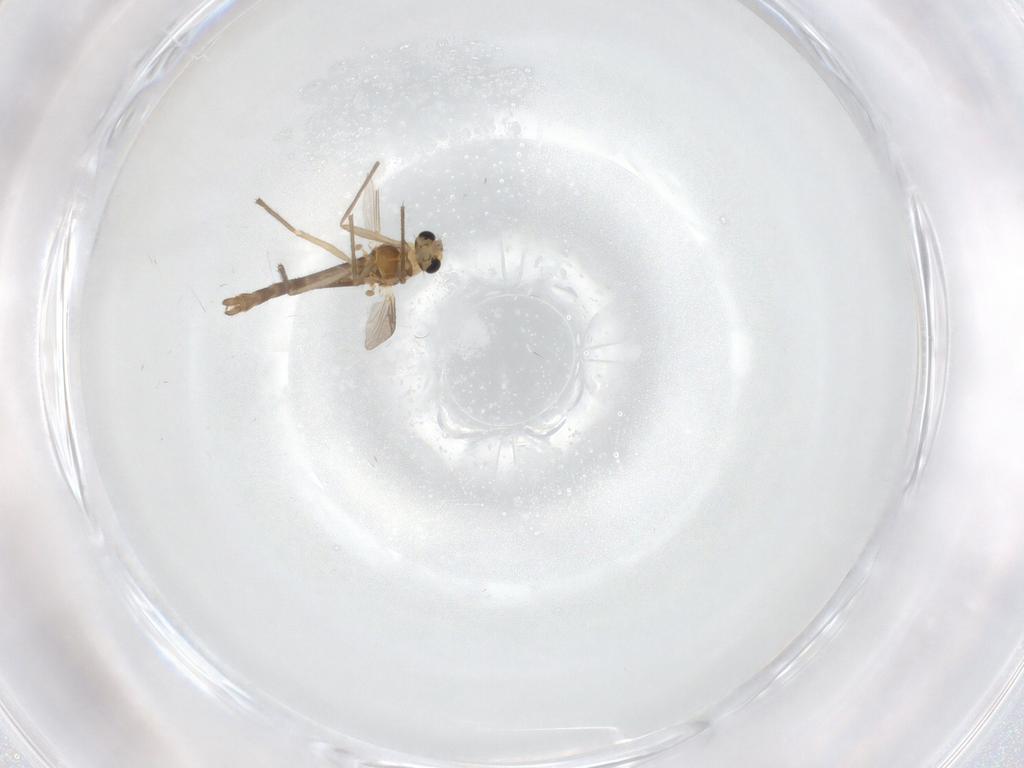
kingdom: Animalia
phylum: Arthropoda
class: Insecta
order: Diptera
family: Chironomidae
